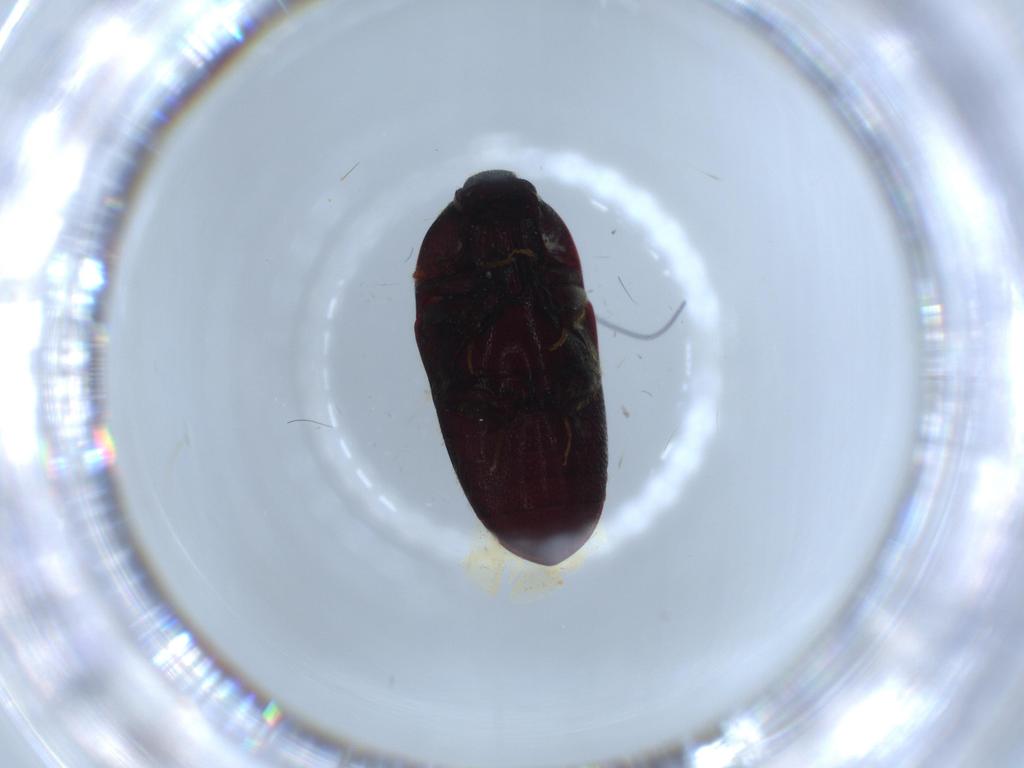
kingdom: Animalia
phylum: Arthropoda
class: Insecta
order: Coleoptera
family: Throscidae
